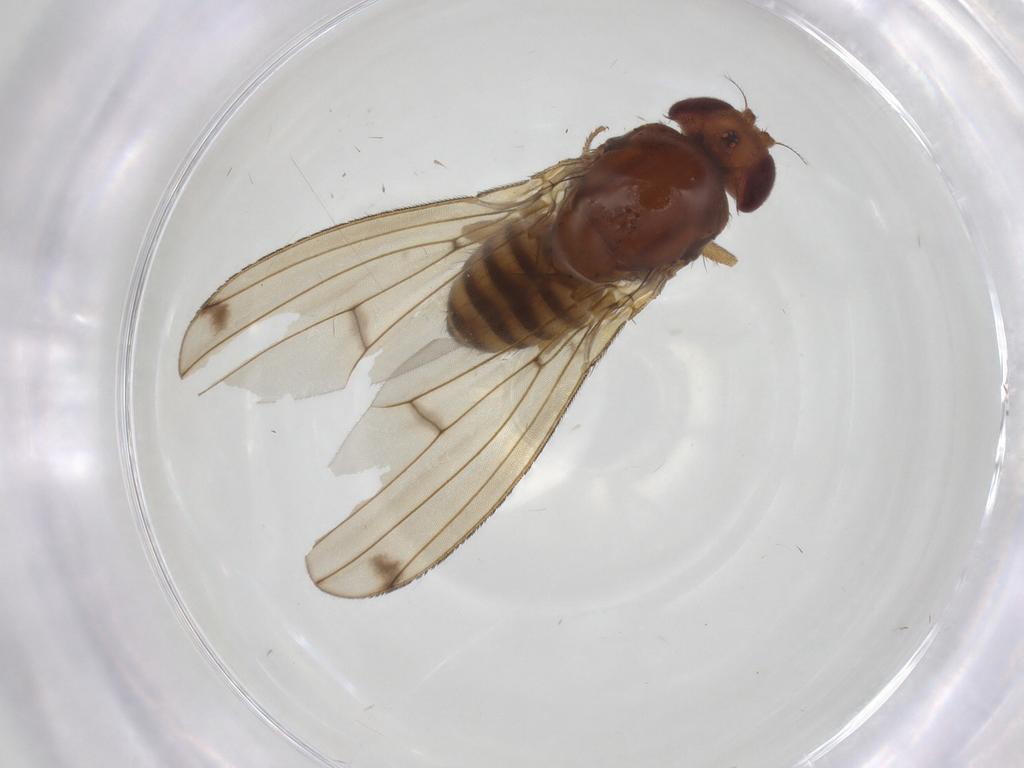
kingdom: Animalia
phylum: Arthropoda
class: Insecta
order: Diptera
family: Drosophilidae
